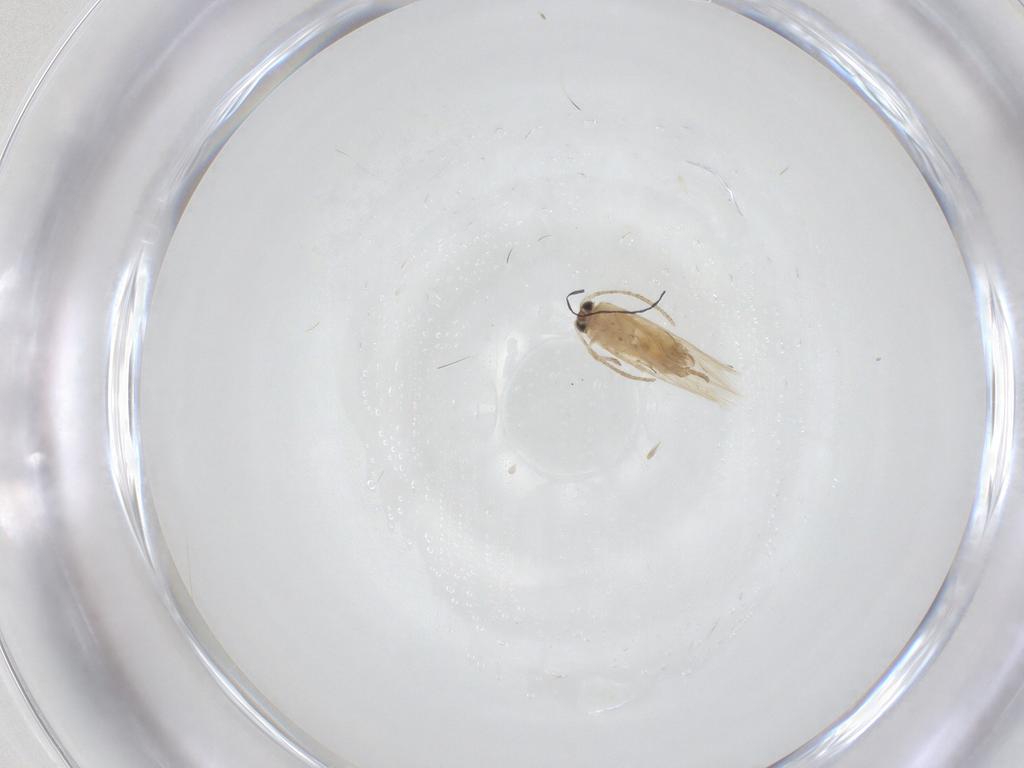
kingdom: Animalia
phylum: Arthropoda
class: Insecta
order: Lepidoptera
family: Nepticulidae
